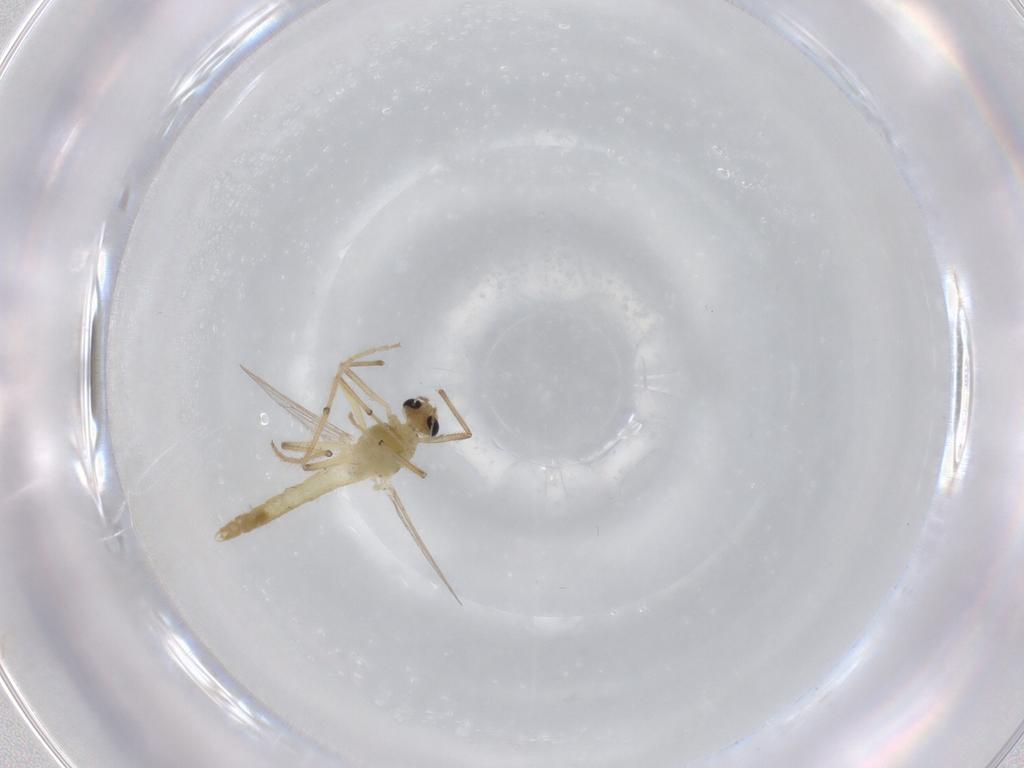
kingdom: Animalia
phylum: Arthropoda
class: Insecta
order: Diptera
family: Chironomidae
